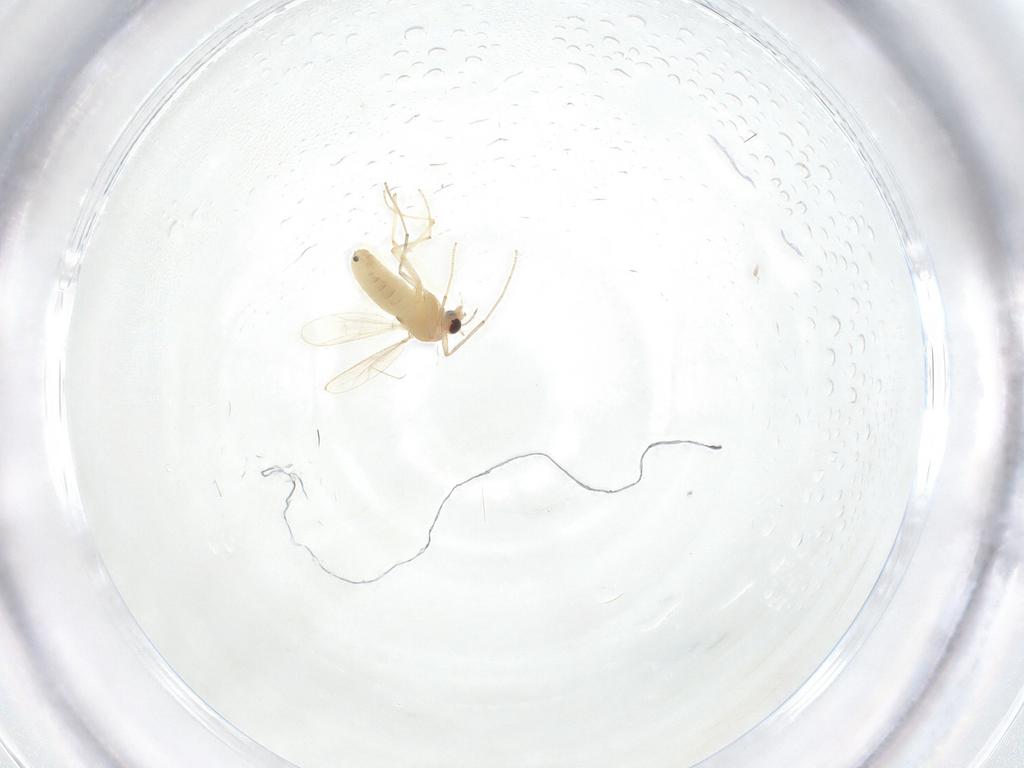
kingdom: Animalia
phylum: Arthropoda
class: Insecta
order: Diptera
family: Chironomidae
